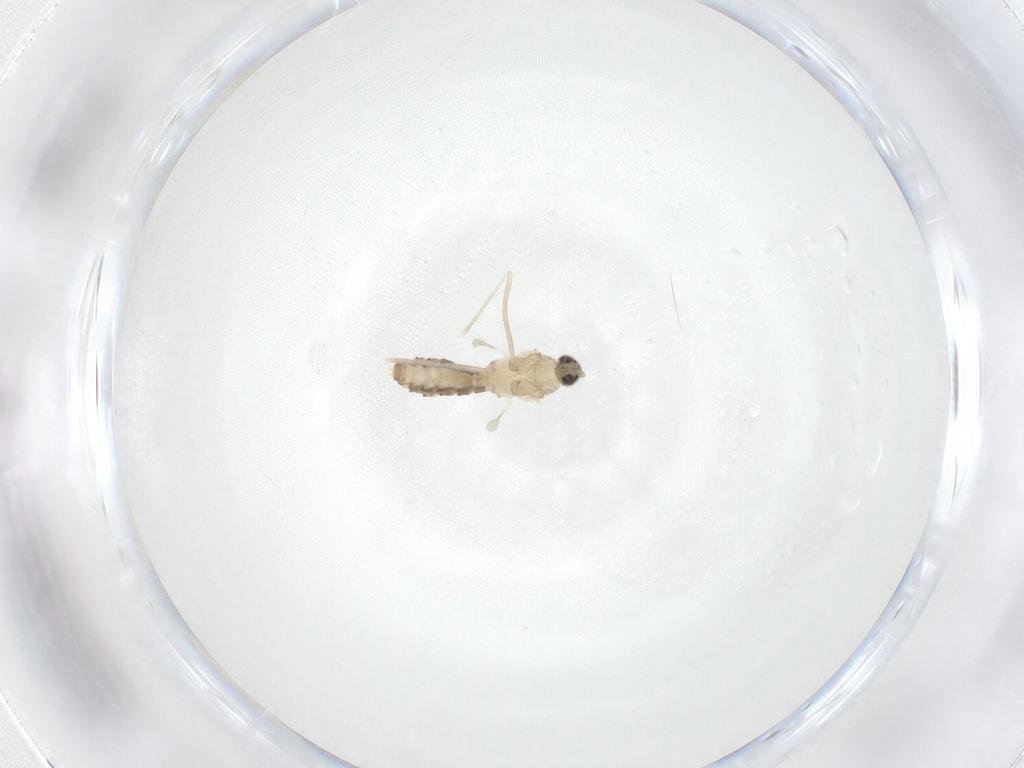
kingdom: Animalia
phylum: Arthropoda
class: Insecta
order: Diptera
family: Cecidomyiidae
